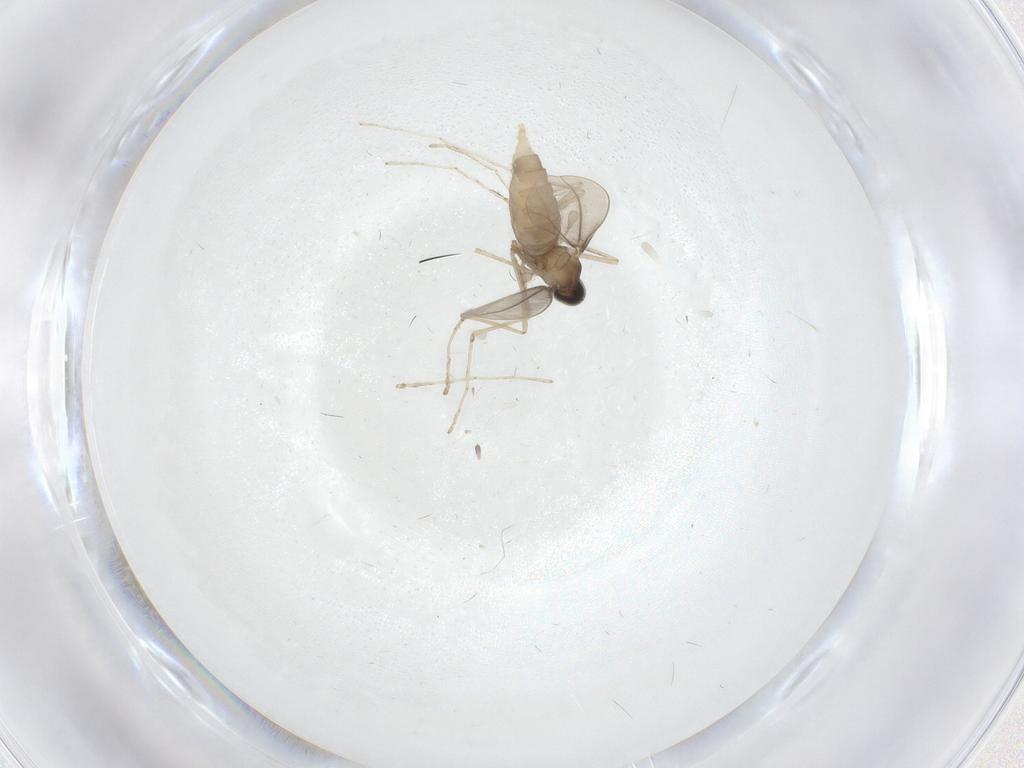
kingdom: Animalia
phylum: Arthropoda
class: Insecta
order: Diptera
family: Chironomidae
